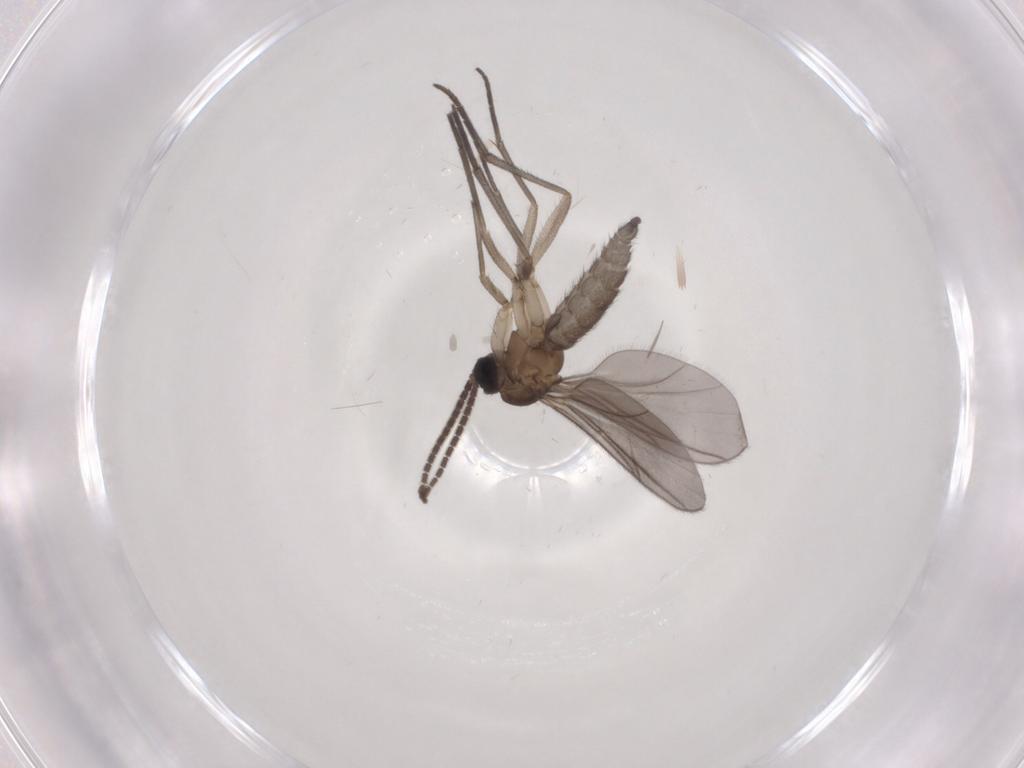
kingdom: Animalia
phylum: Arthropoda
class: Insecta
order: Diptera
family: Sciaridae
